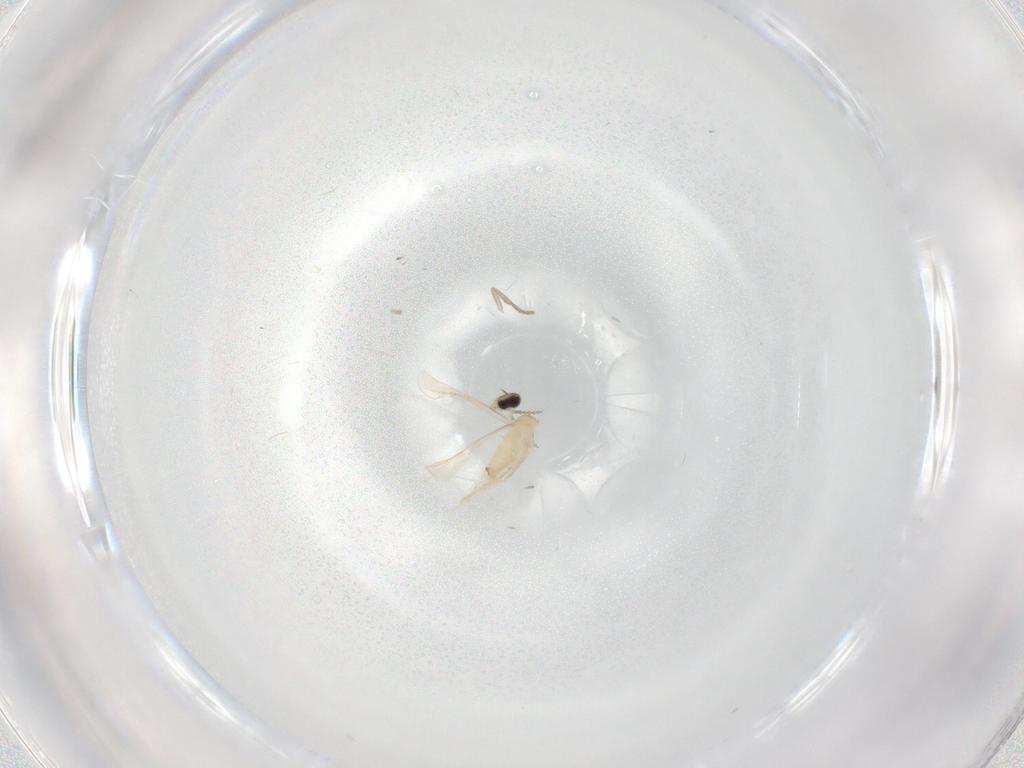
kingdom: Animalia
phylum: Arthropoda
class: Insecta
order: Diptera
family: Cecidomyiidae
